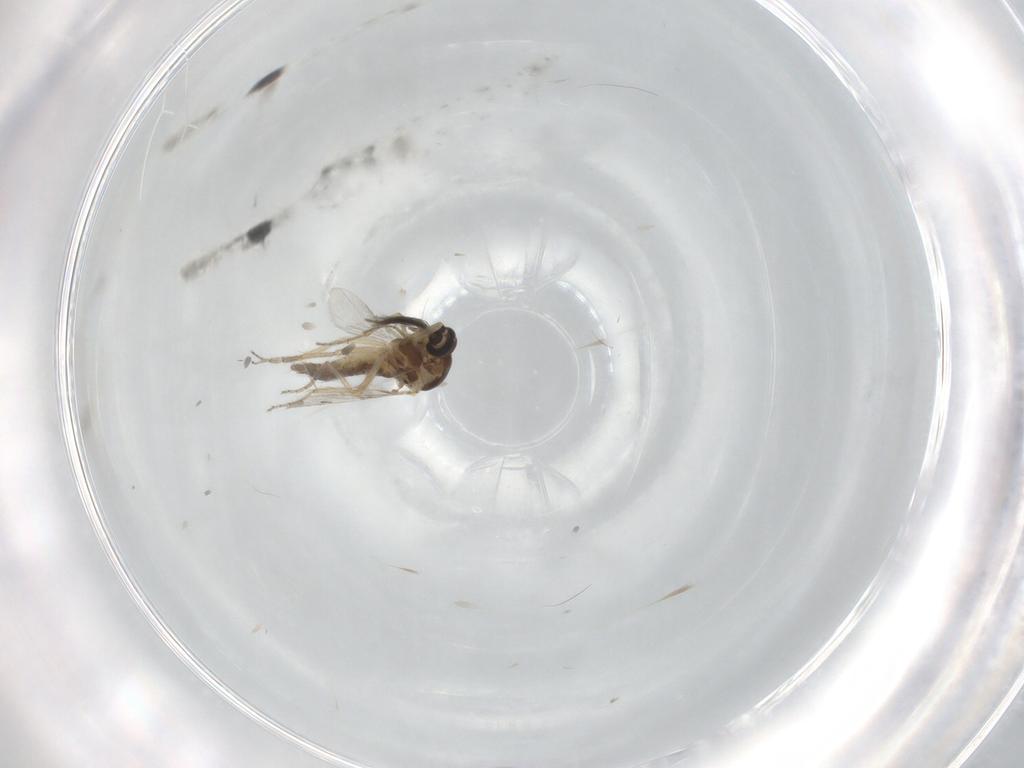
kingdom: Animalia
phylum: Arthropoda
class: Insecta
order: Diptera
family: Ceratopogonidae
